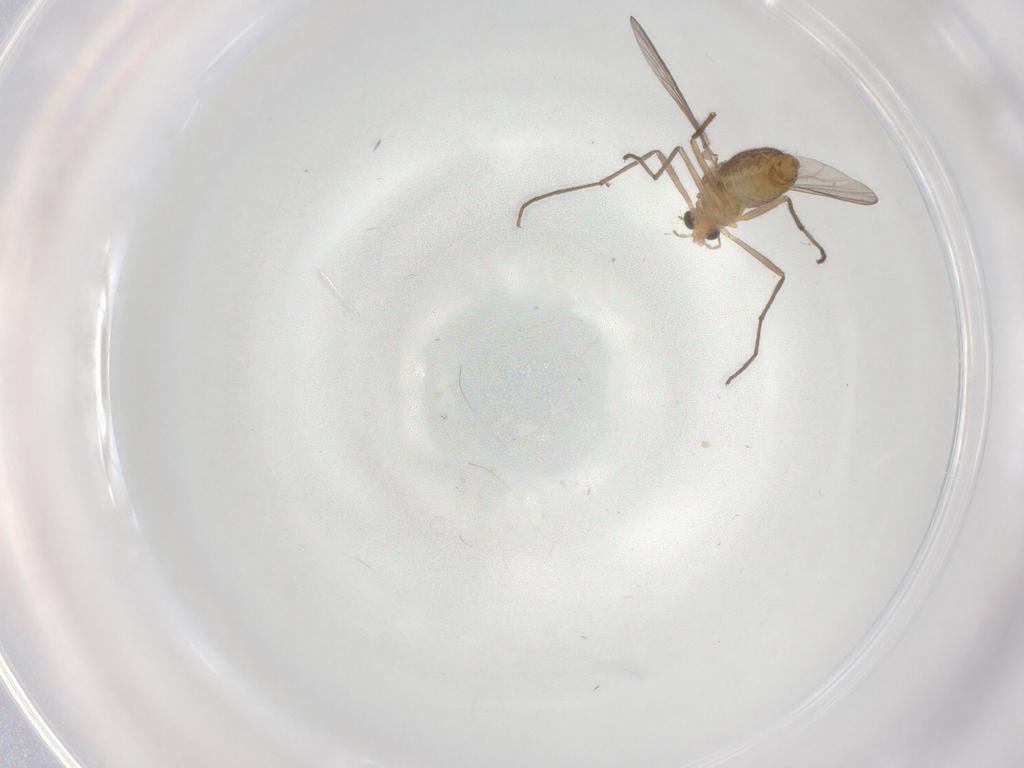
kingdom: Animalia
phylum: Arthropoda
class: Insecta
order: Diptera
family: Chironomidae
